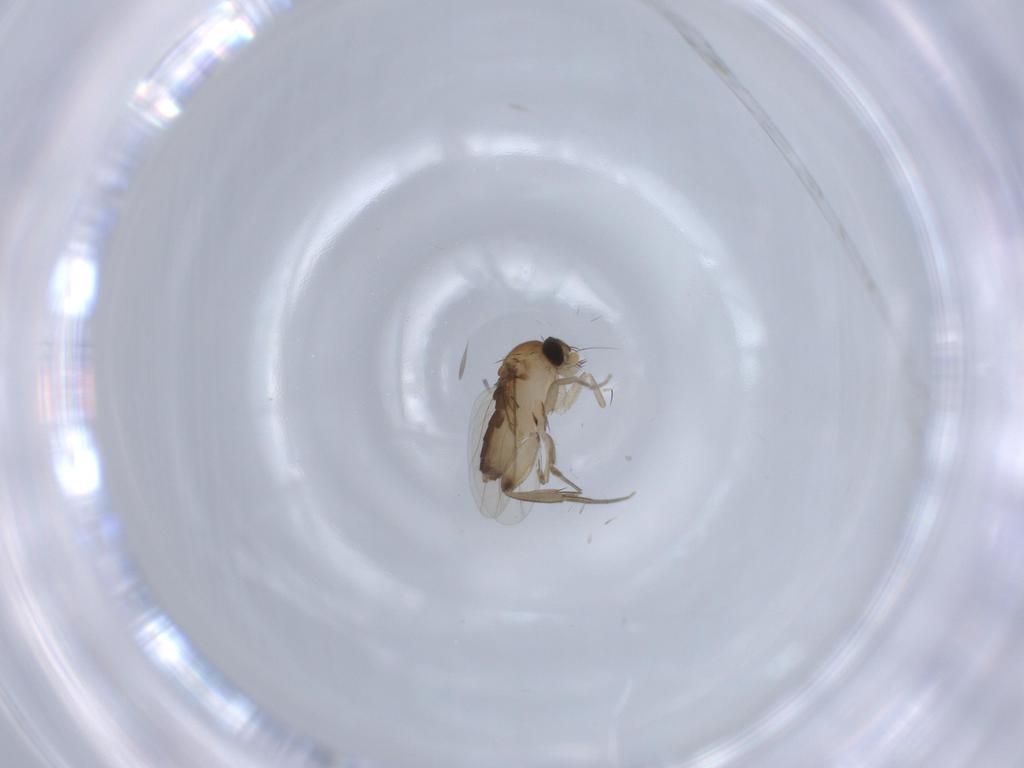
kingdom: Animalia
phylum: Arthropoda
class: Insecta
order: Diptera
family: Phoridae
